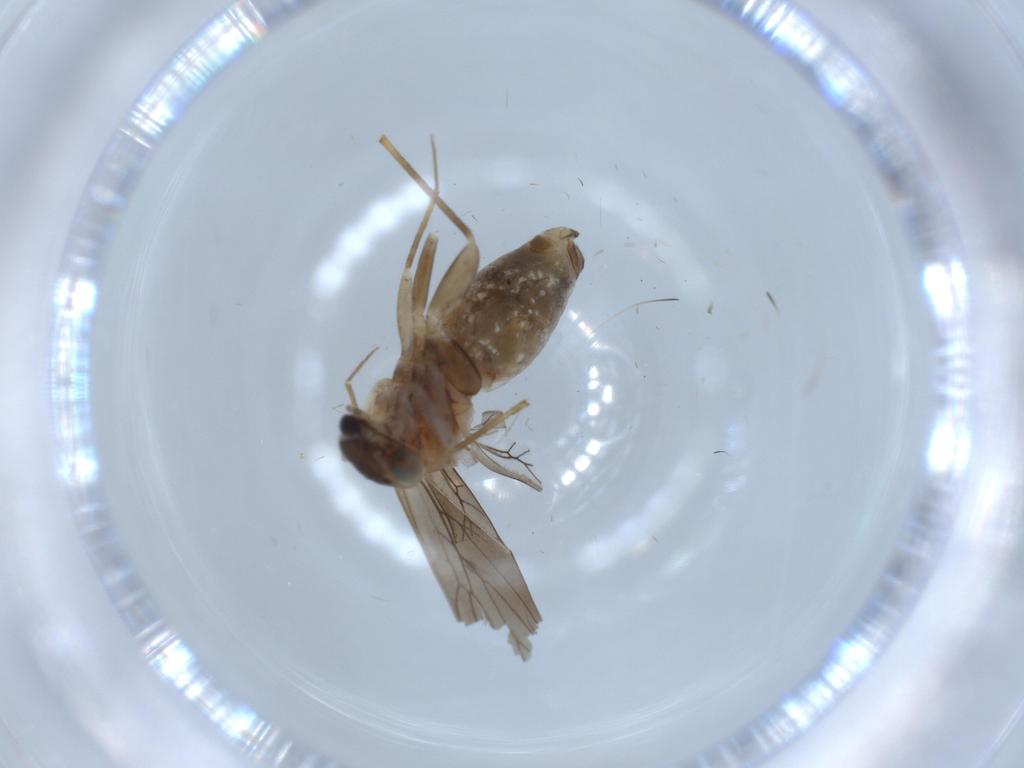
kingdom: Animalia
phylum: Arthropoda
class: Insecta
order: Psocodea
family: Caeciliusidae
